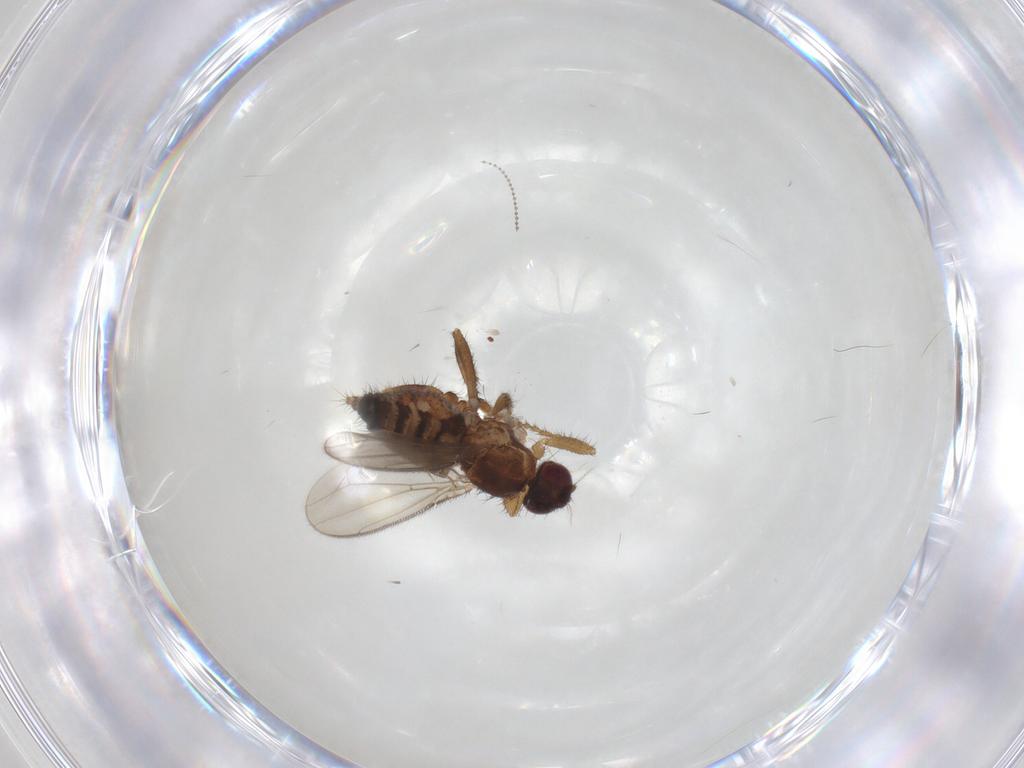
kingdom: Animalia
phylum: Arthropoda
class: Insecta
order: Diptera
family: Sphaeroceridae
